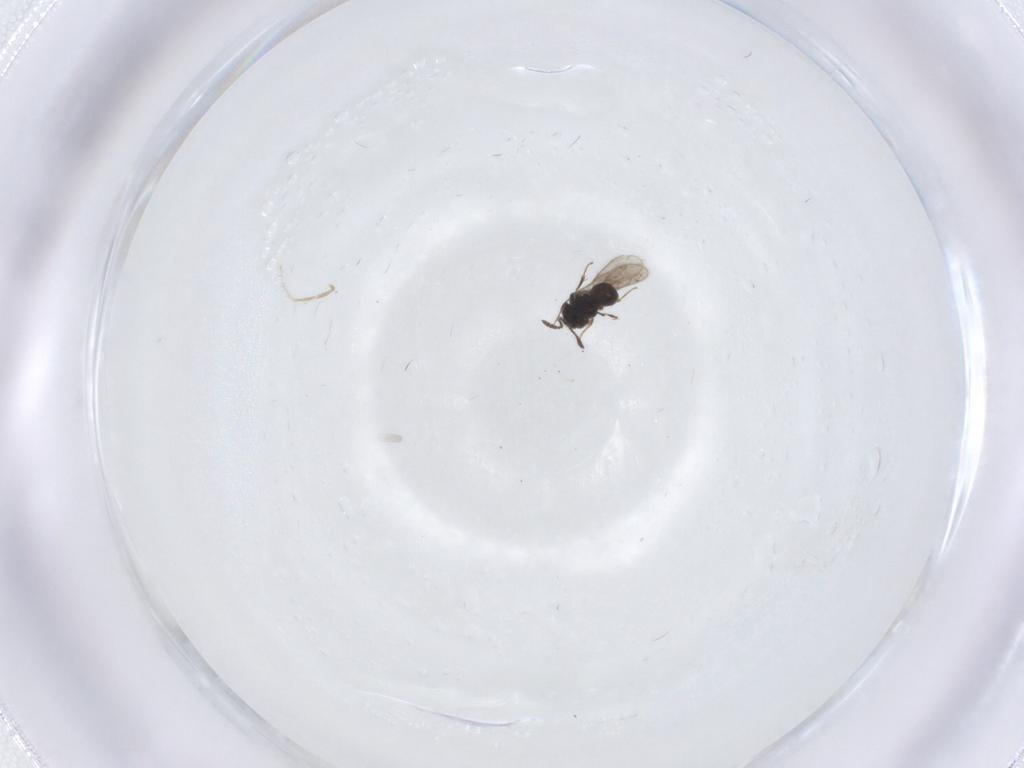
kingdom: Animalia
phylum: Arthropoda
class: Insecta
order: Hymenoptera
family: Scelionidae
